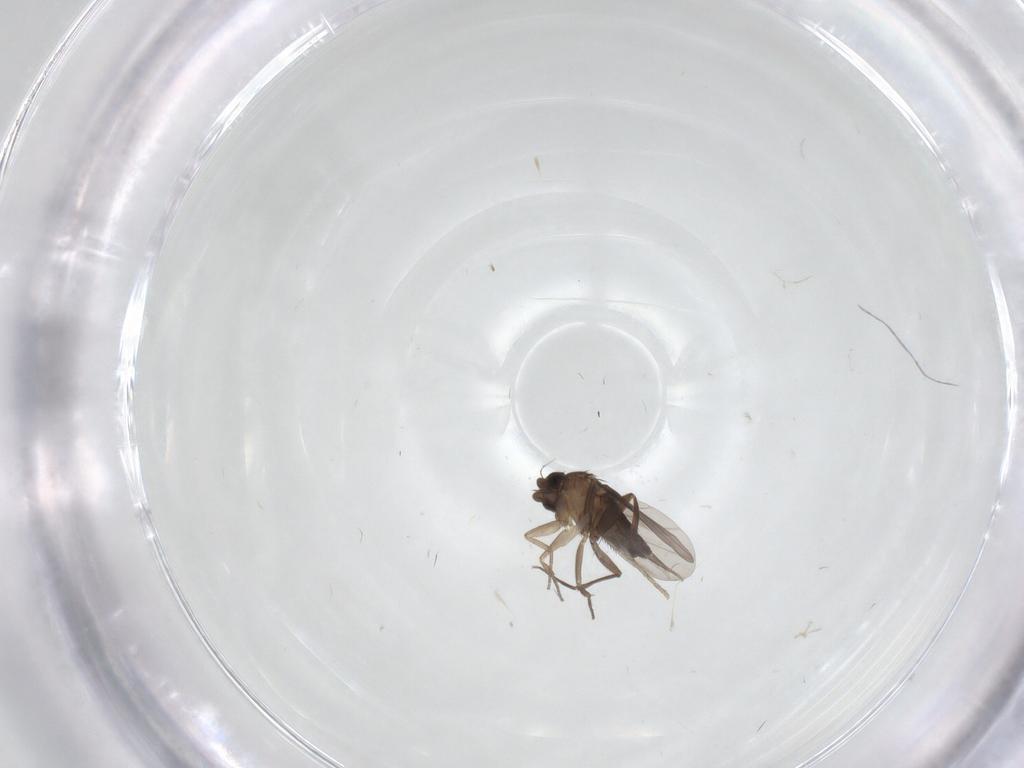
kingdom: Animalia
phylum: Arthropoda
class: Insecta
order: Diptera
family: Phoridae
